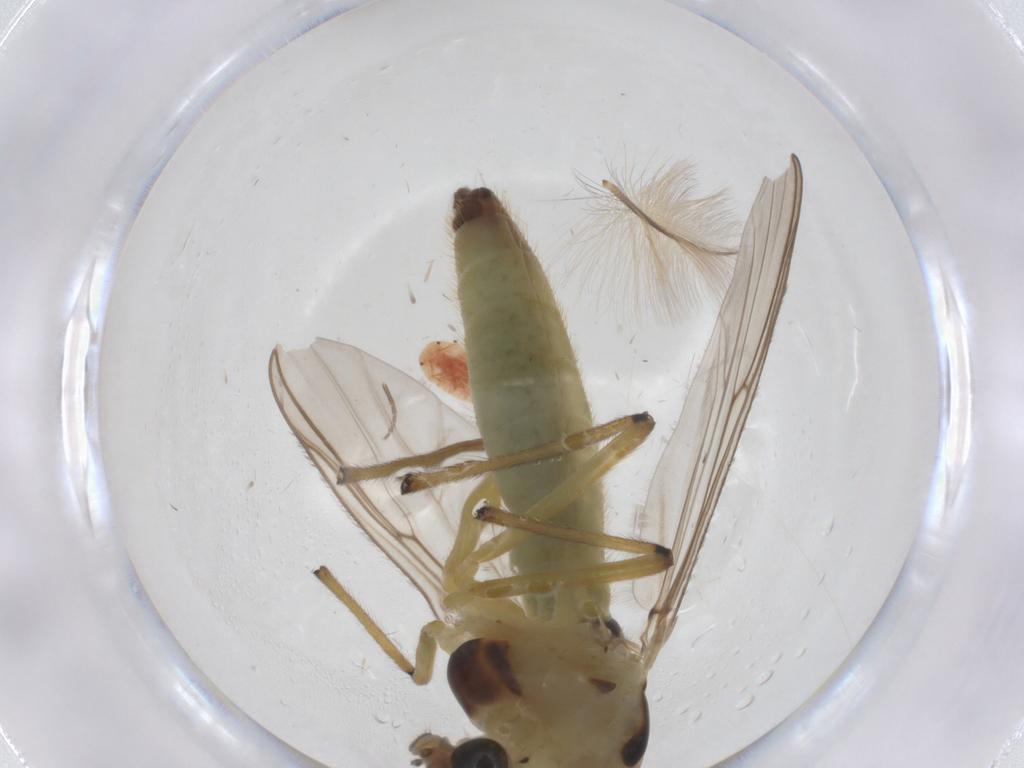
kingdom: Animalia
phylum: Arthropoda
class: Insecta
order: Diptera
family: Chironomidae
